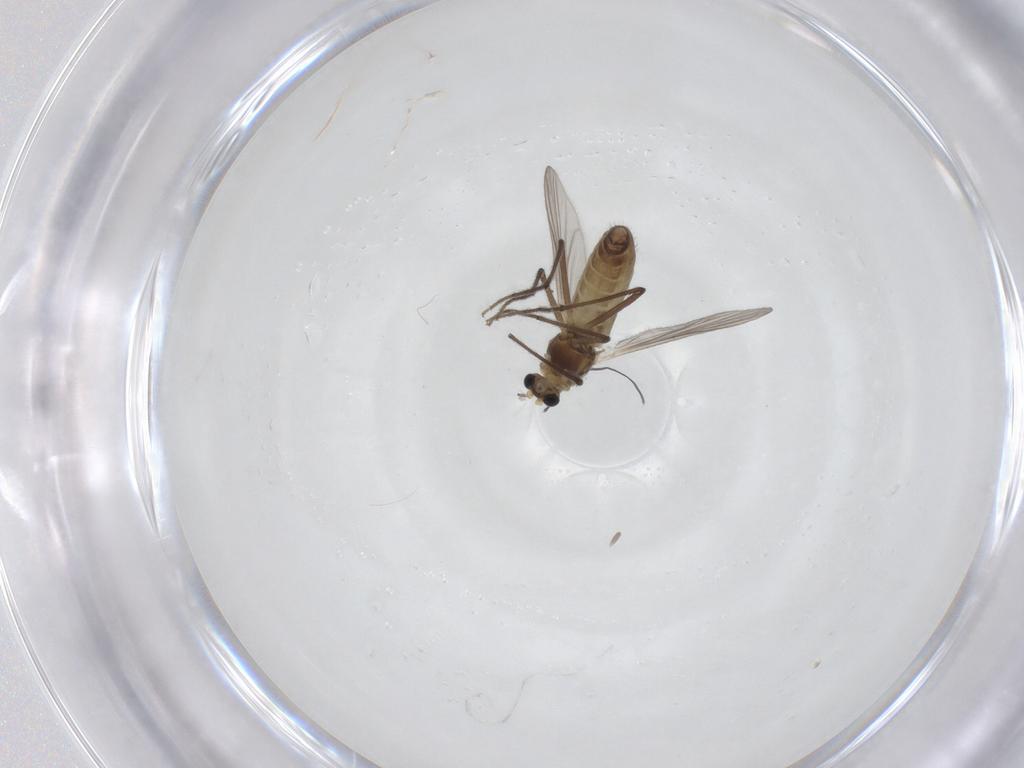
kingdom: Animalia
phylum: Arthropoda
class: Insecta
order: Diptera
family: Chironomidae
